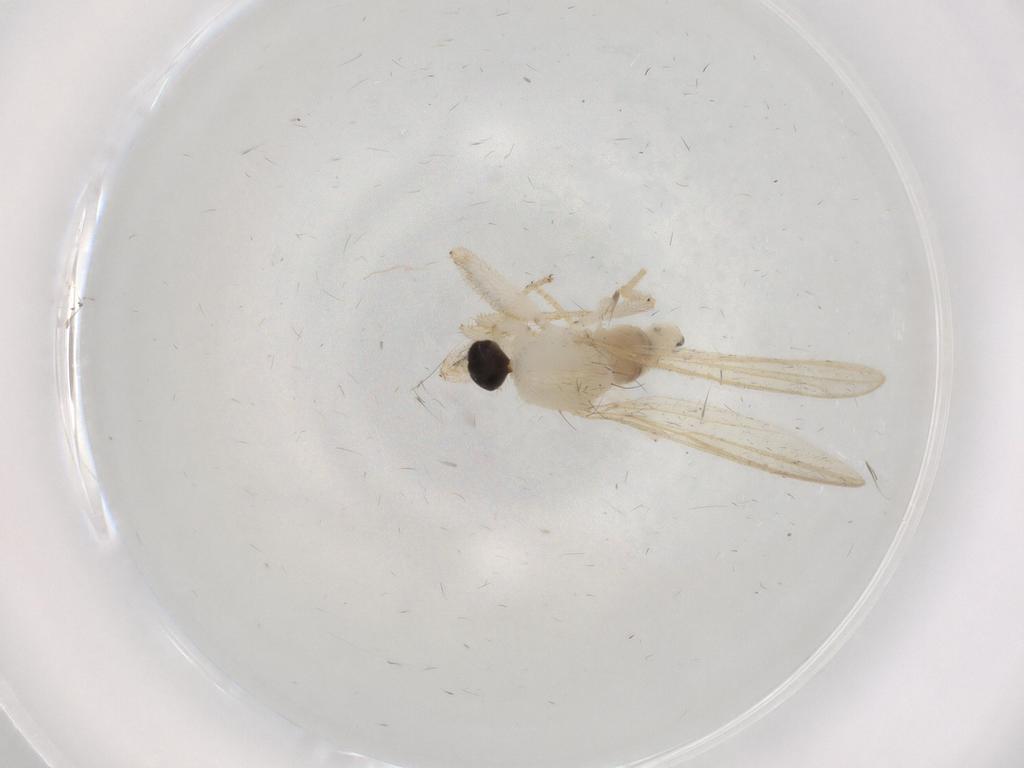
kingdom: Animalia
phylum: Arthropoda
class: Insecta
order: Diptera
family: Hybotidae
